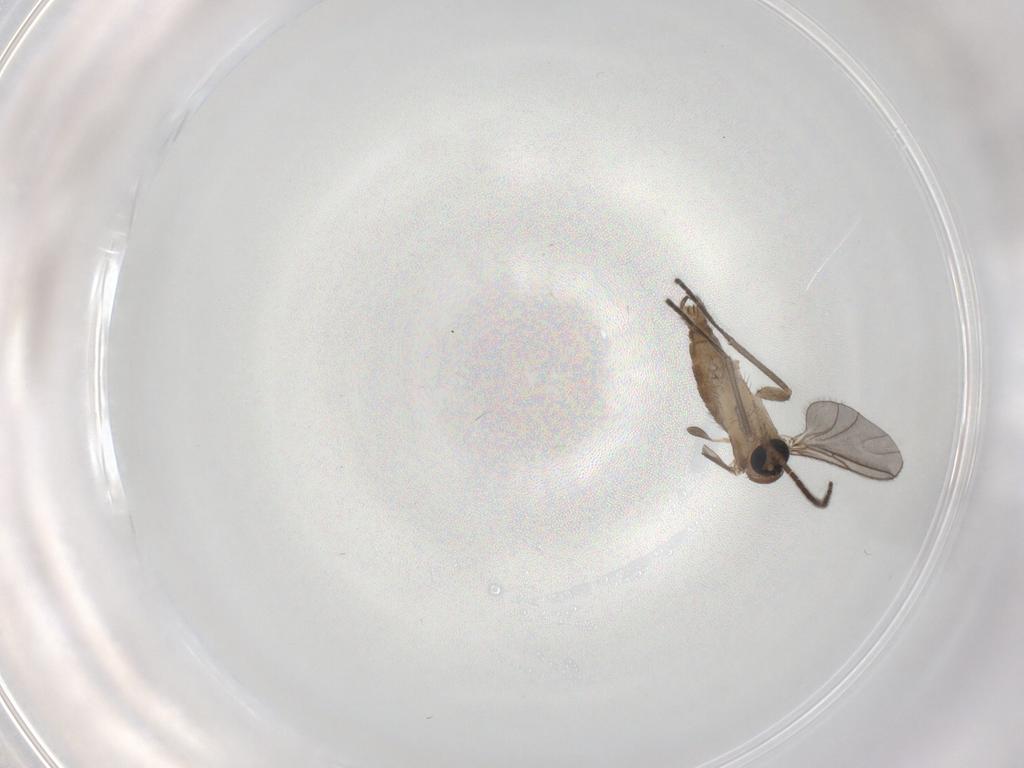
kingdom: Animalia
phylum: Arthropoda
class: Insecta
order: Diptera
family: Sciaridae
